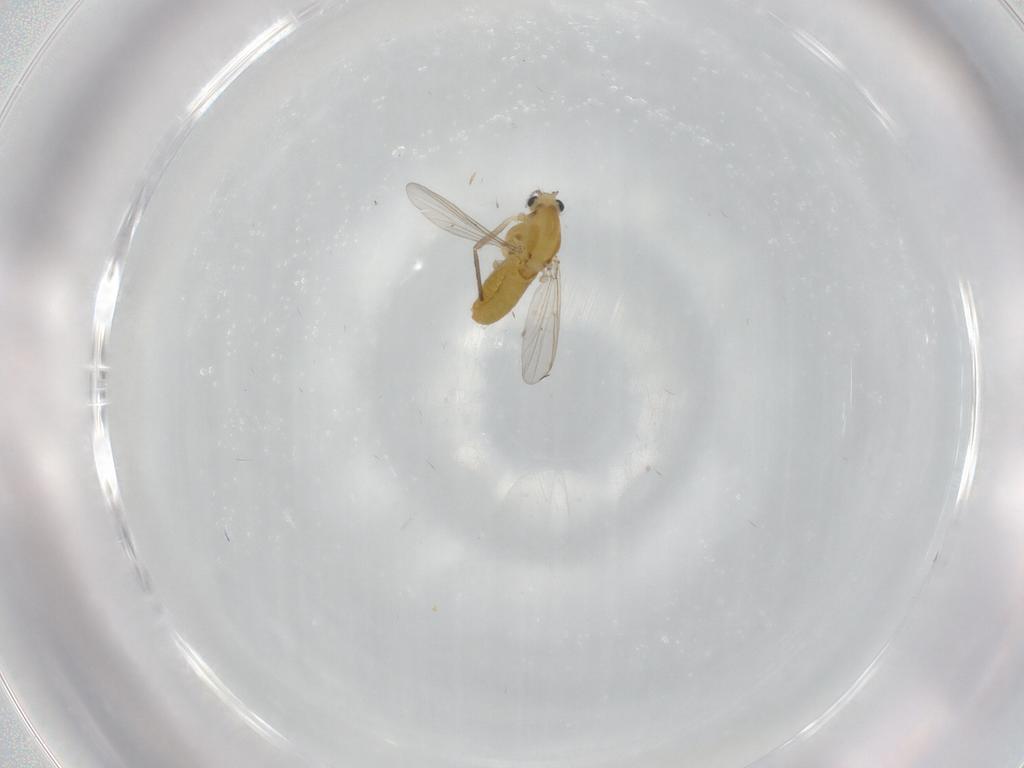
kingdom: Animalia
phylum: Arthropoda
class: Insecta
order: Diptera
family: Chironomidae
